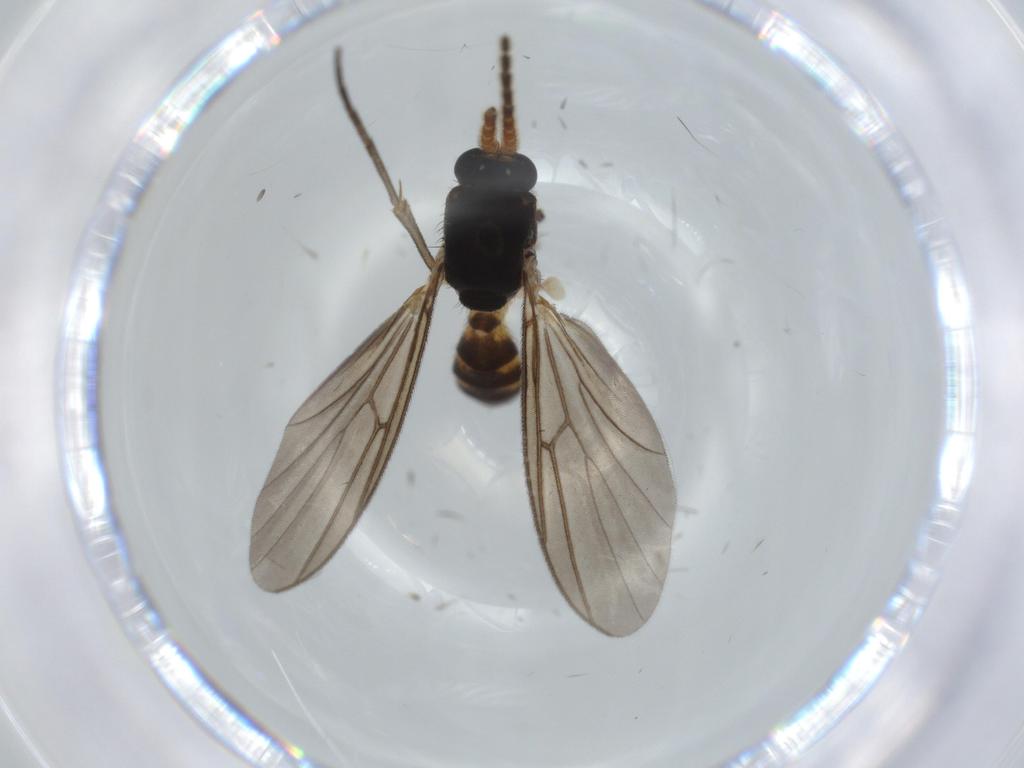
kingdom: Animalia
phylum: Arthropoda
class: Insecta
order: Diptera
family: Ceratopogonidae
